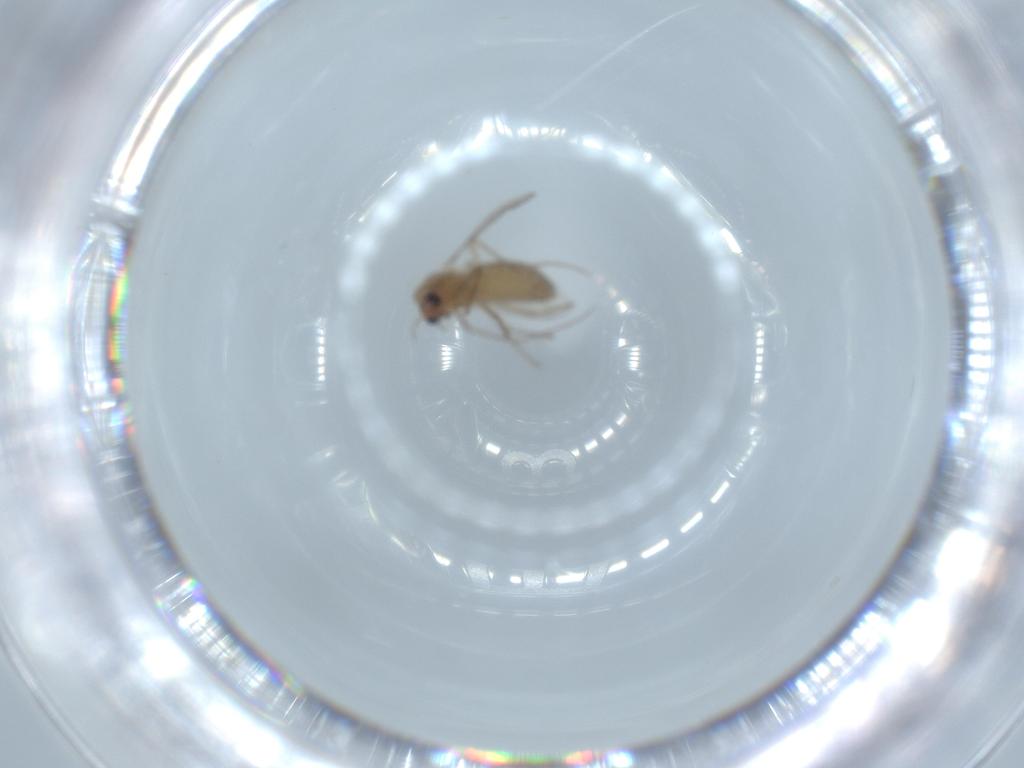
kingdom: Animalia
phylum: Arthropoda
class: Insecta
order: Diptera
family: Chironomidae
